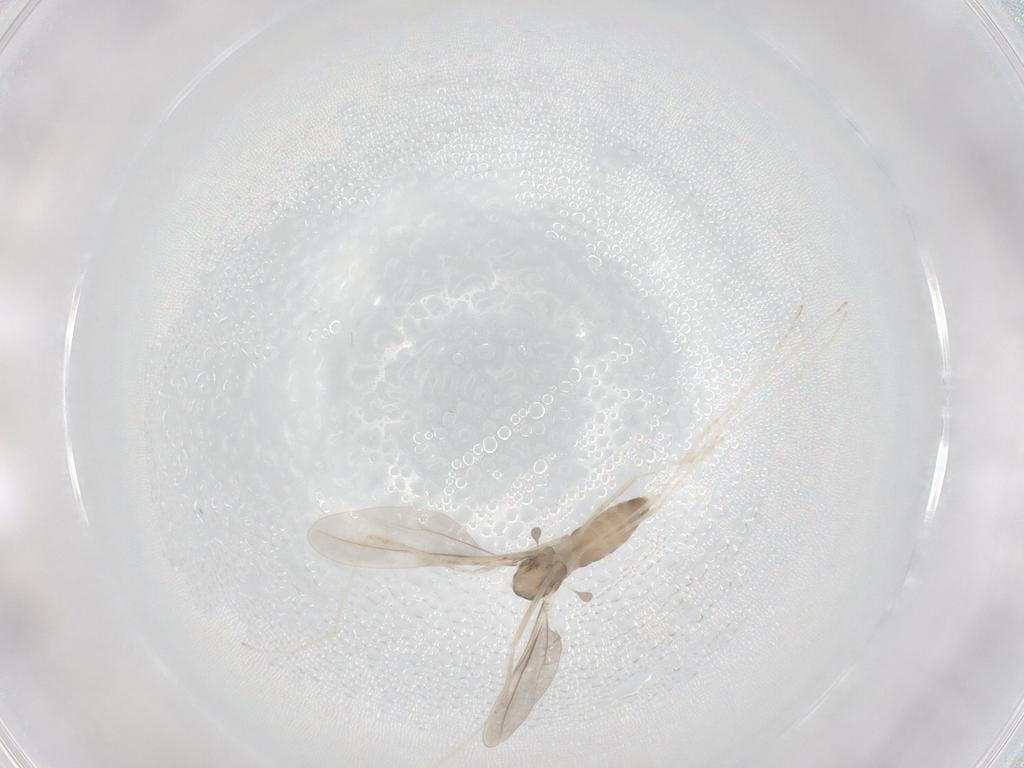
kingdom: Animalia
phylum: Arthropoda
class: Insecta
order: Diptera
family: Cecidomyiidae
